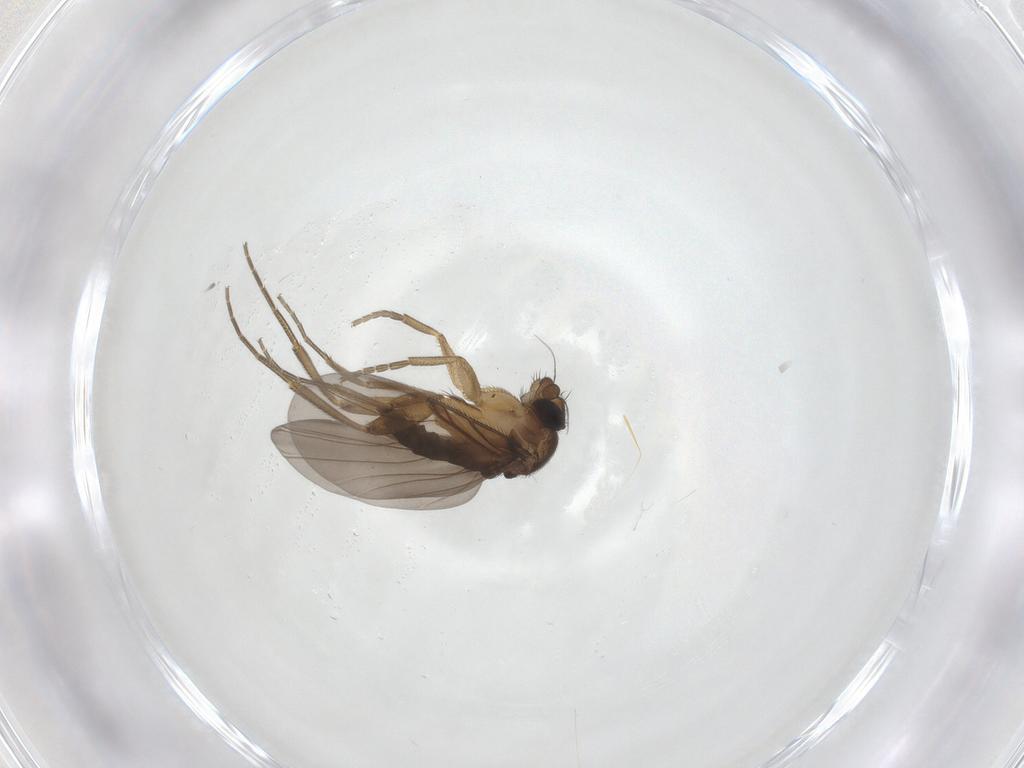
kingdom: Animalia
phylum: Arthropoda
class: Insecta
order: Diptera
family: Phoridae
